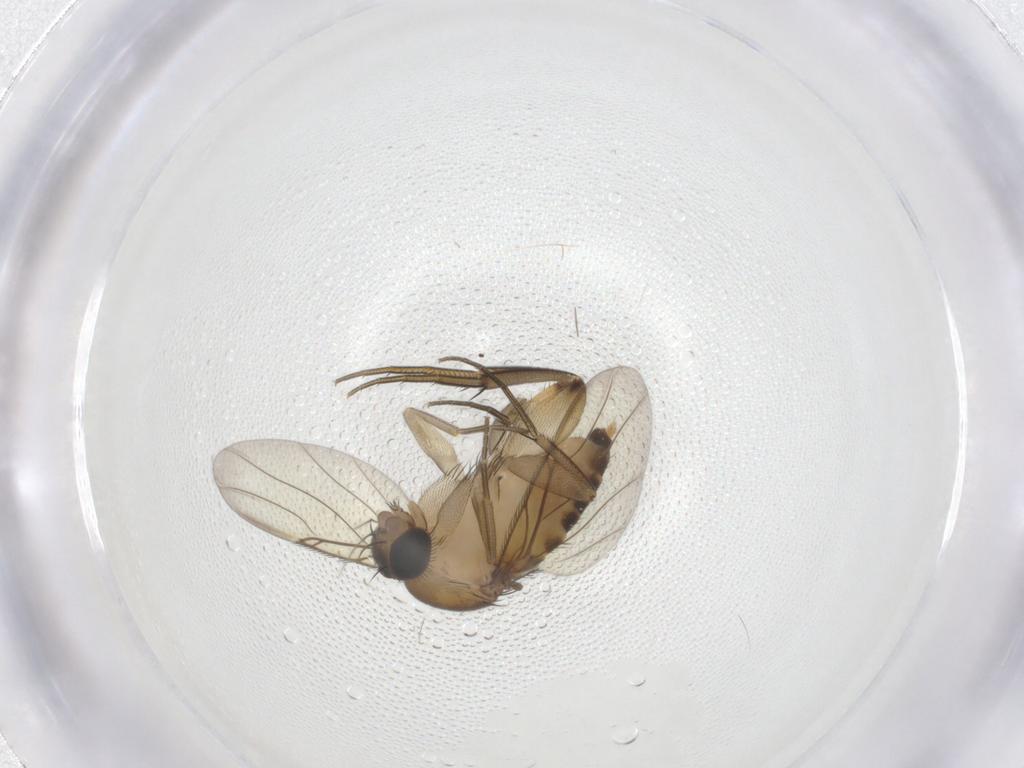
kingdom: Animalia
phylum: Arthropoda
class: Insecta
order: Diptera
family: Phoridae
